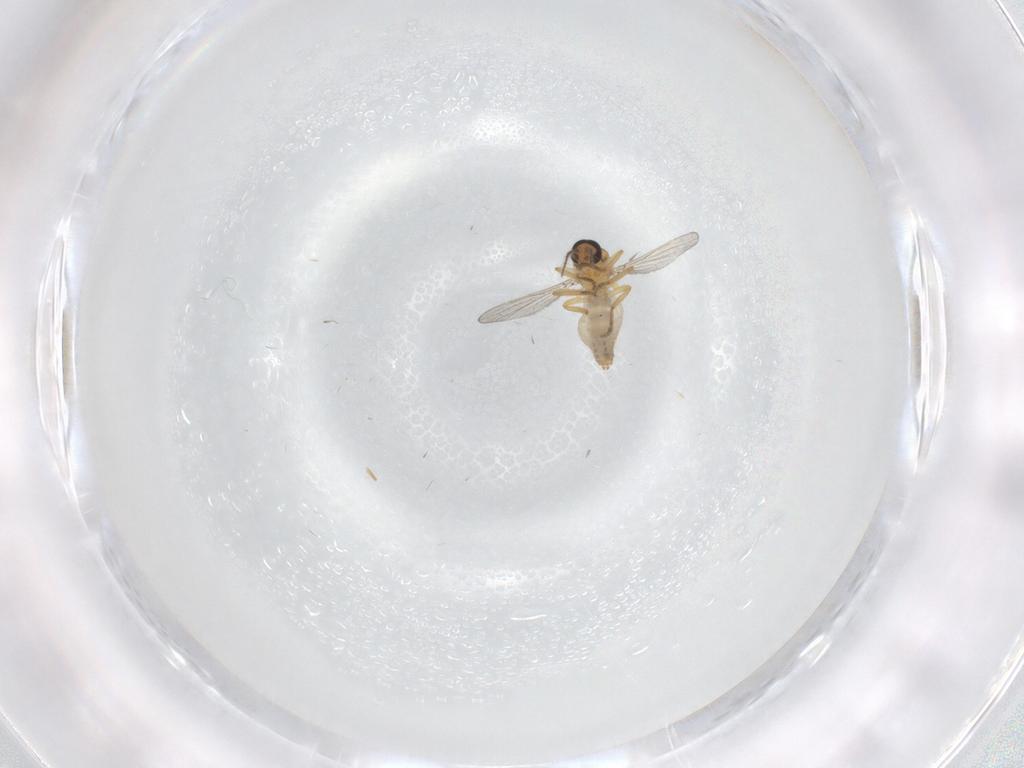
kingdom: Animalia
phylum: Arthropoda
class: Insecta
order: Diptera
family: Ceratopogonidae
